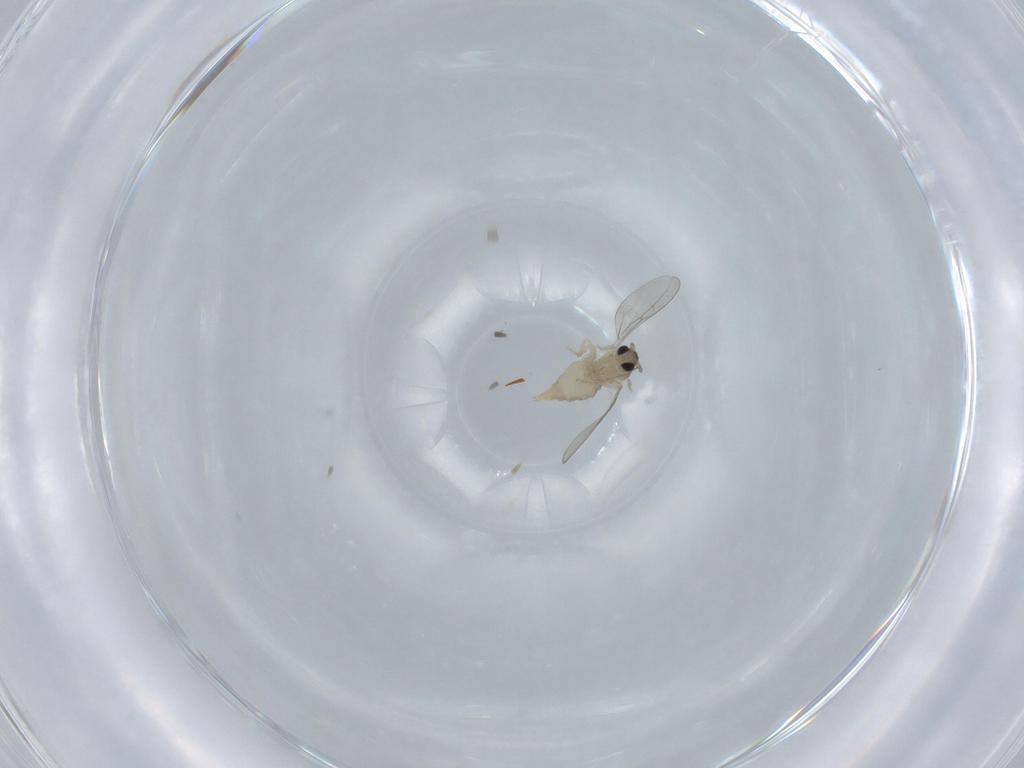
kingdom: Animalia
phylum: Arthropoda
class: Insecta
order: Diptera
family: Cecidomyiidae
